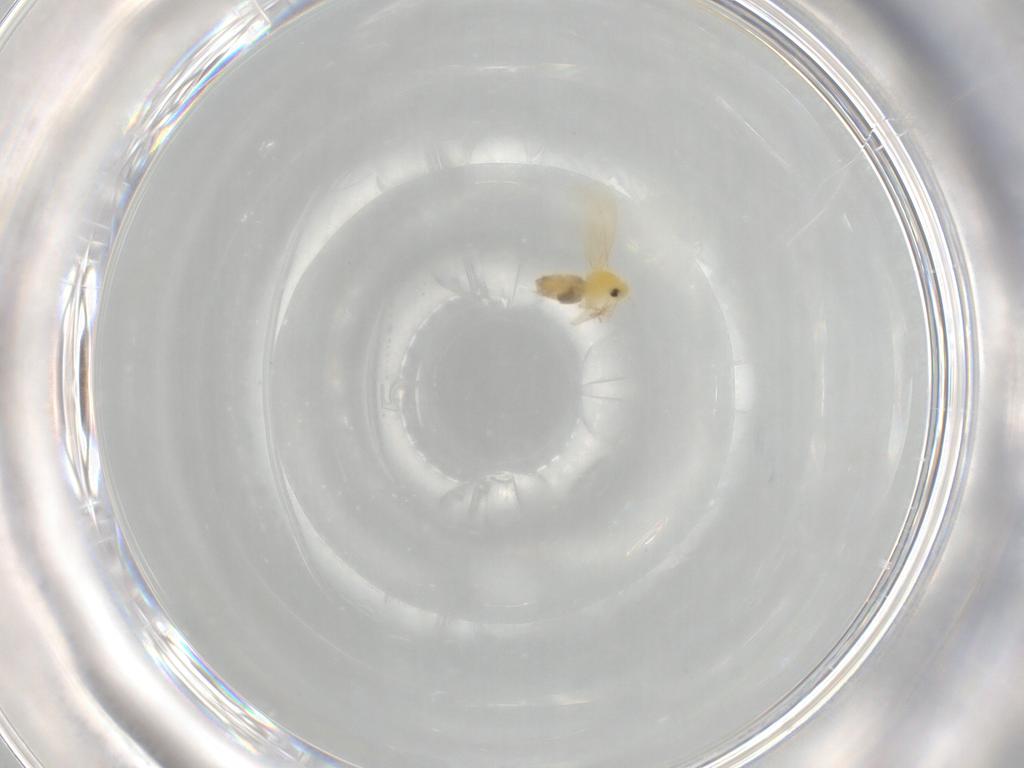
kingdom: Animalia
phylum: Arthropoda
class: Insecta
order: Hemiptera
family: Aleyrodidae
